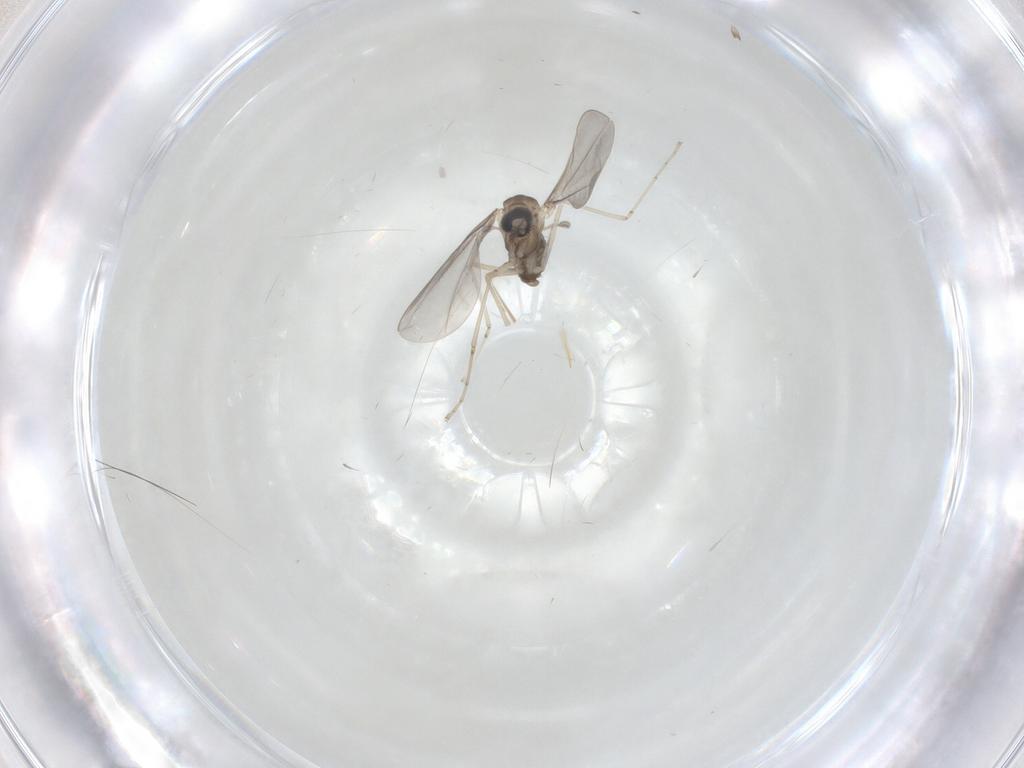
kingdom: Animalia
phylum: Arthropoda
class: Insecta
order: Diptera
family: Cecidomyiidae
